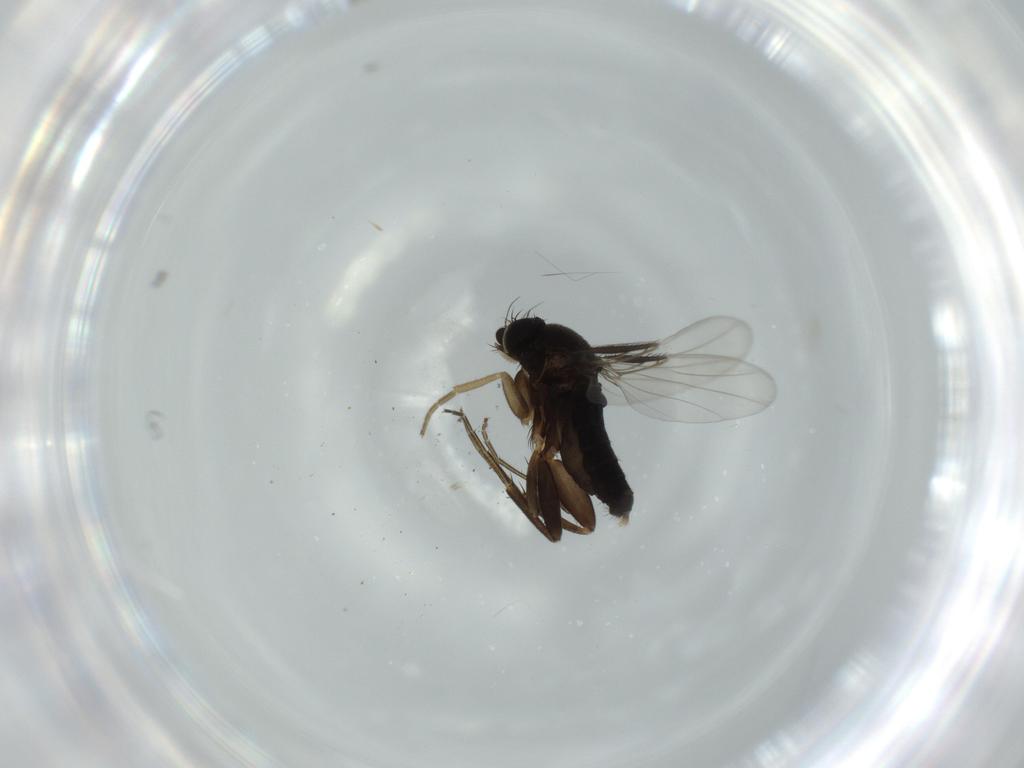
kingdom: Animalia
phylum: Arthropoda
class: Insecta
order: Diptera
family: Phoridae
